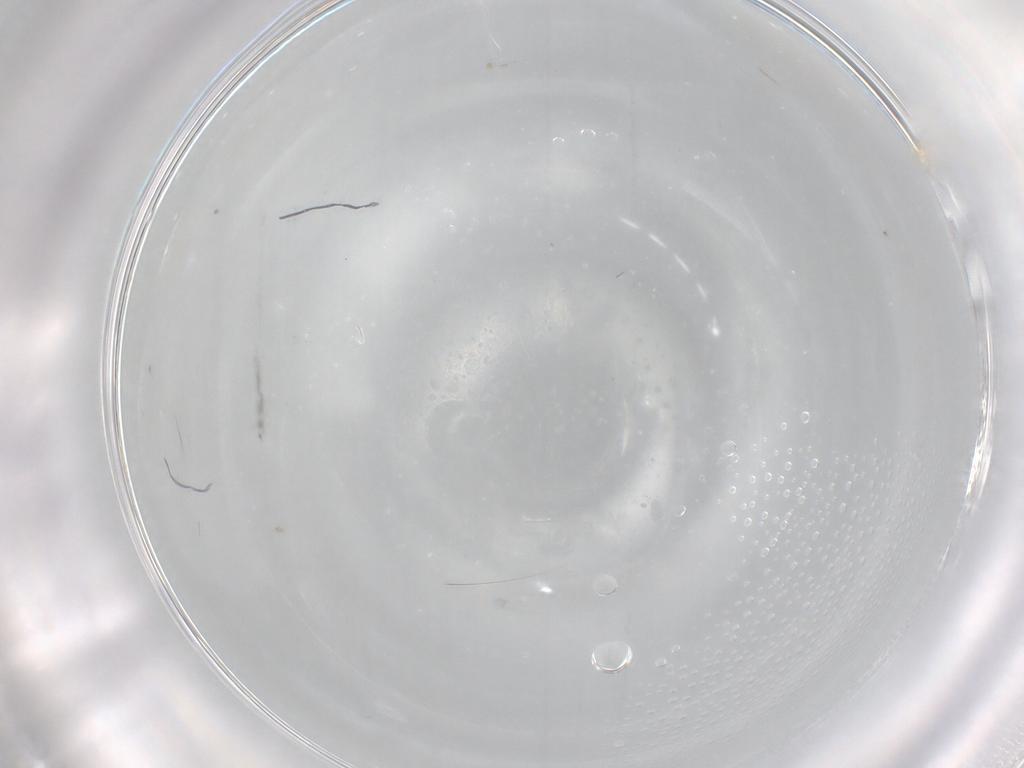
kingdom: Animalia
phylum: Arthropoda
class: Insecta
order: Blattodea
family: Ectobiidae
